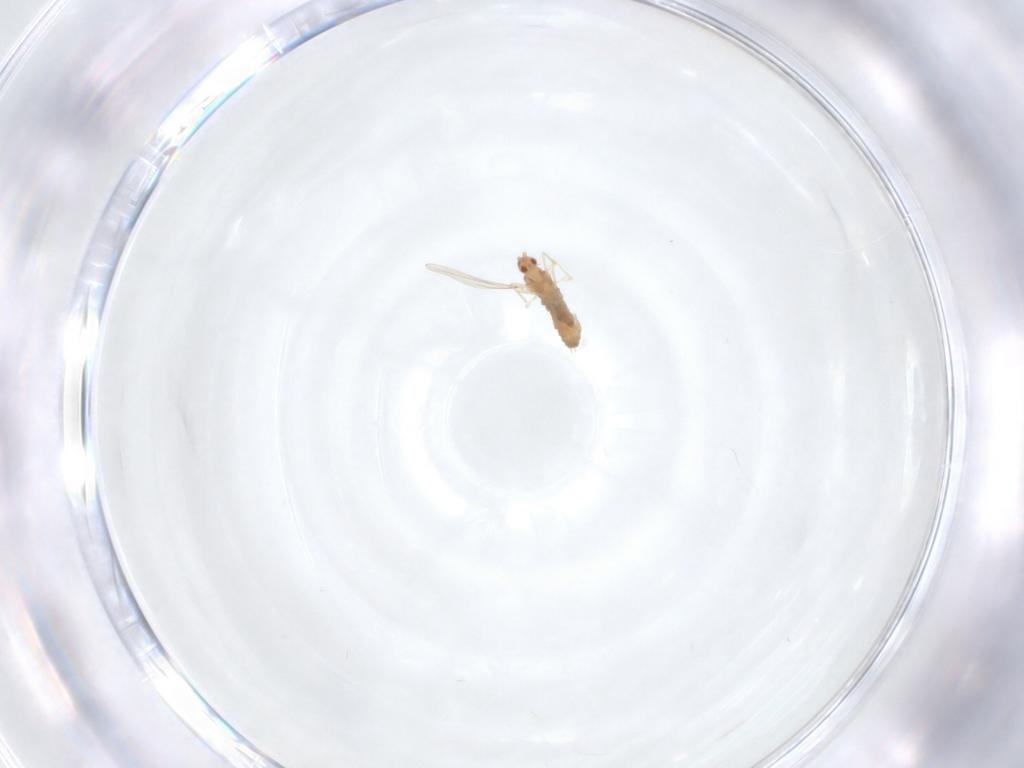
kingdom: Animalia
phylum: Arthropoda
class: Insecta
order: Diptera
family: Cecidomyiidae
